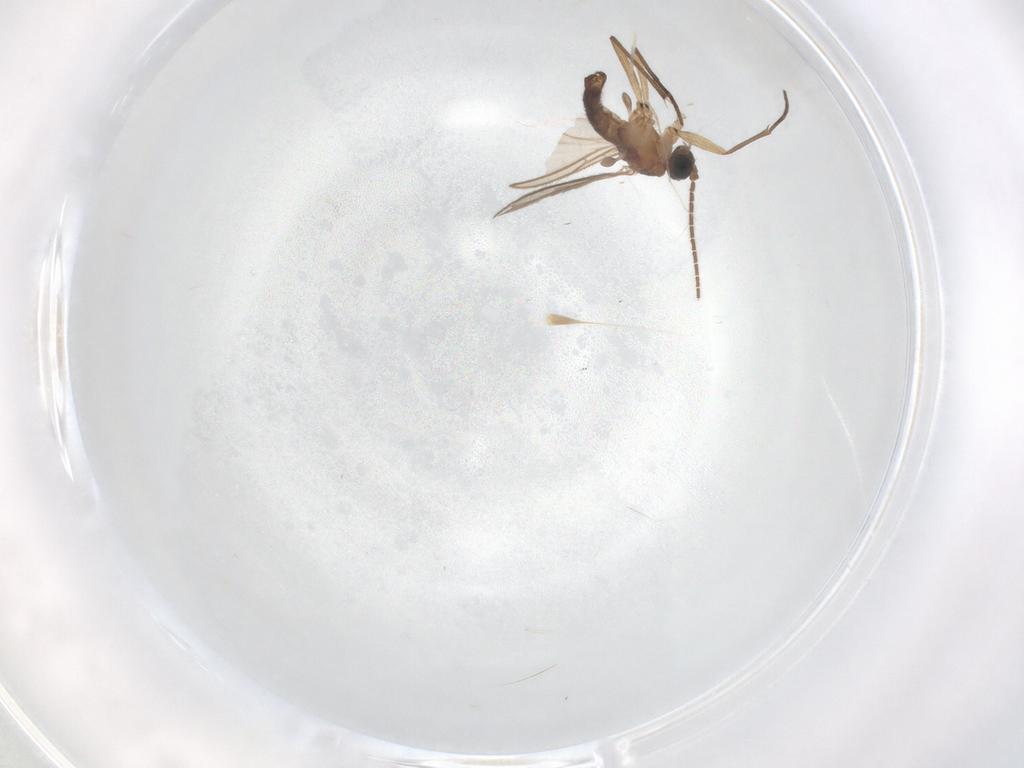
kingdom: Animalia
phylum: Arthropoda
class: Insecta
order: Diptera
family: Cecidomyiidae
